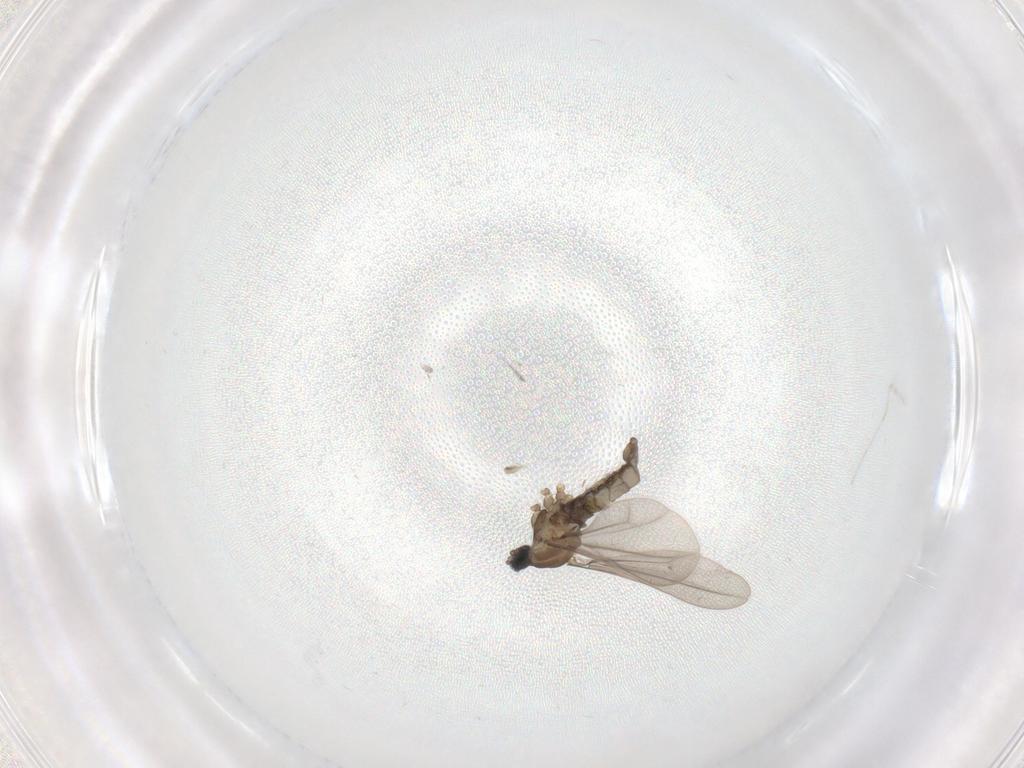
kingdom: Animalia
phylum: Arthropoda
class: Insecta
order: Diptera
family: Cecidomyiidae
